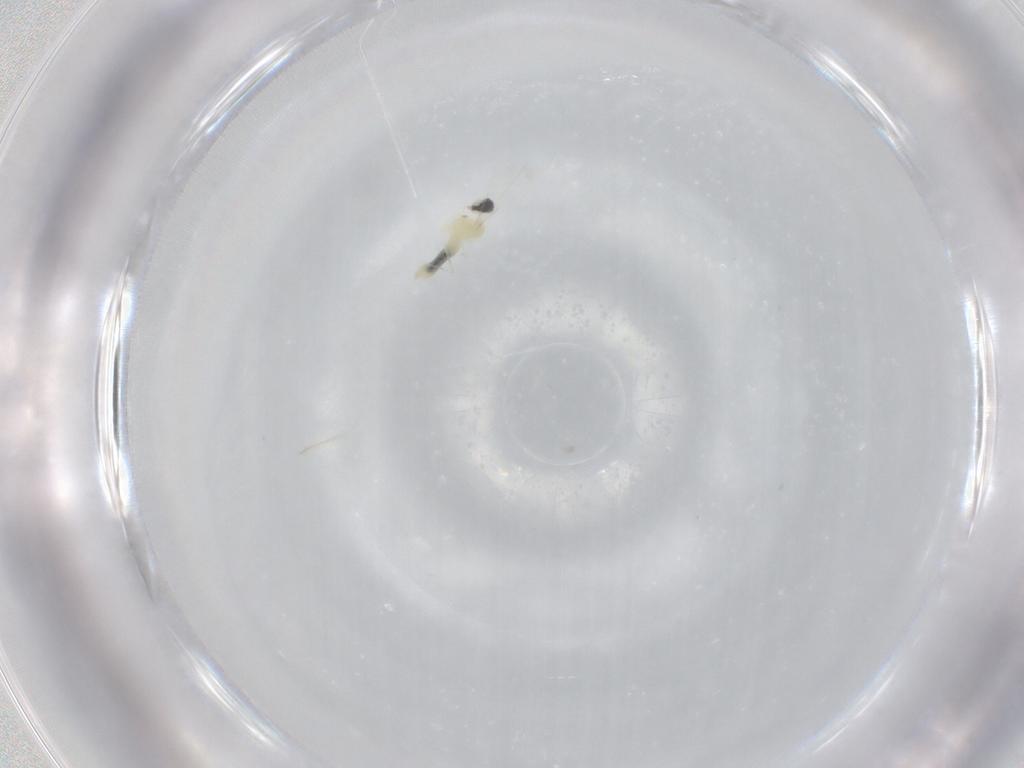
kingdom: Animalia
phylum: Arthropoda
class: Insecta
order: Diptera
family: Cecidomyiidae
